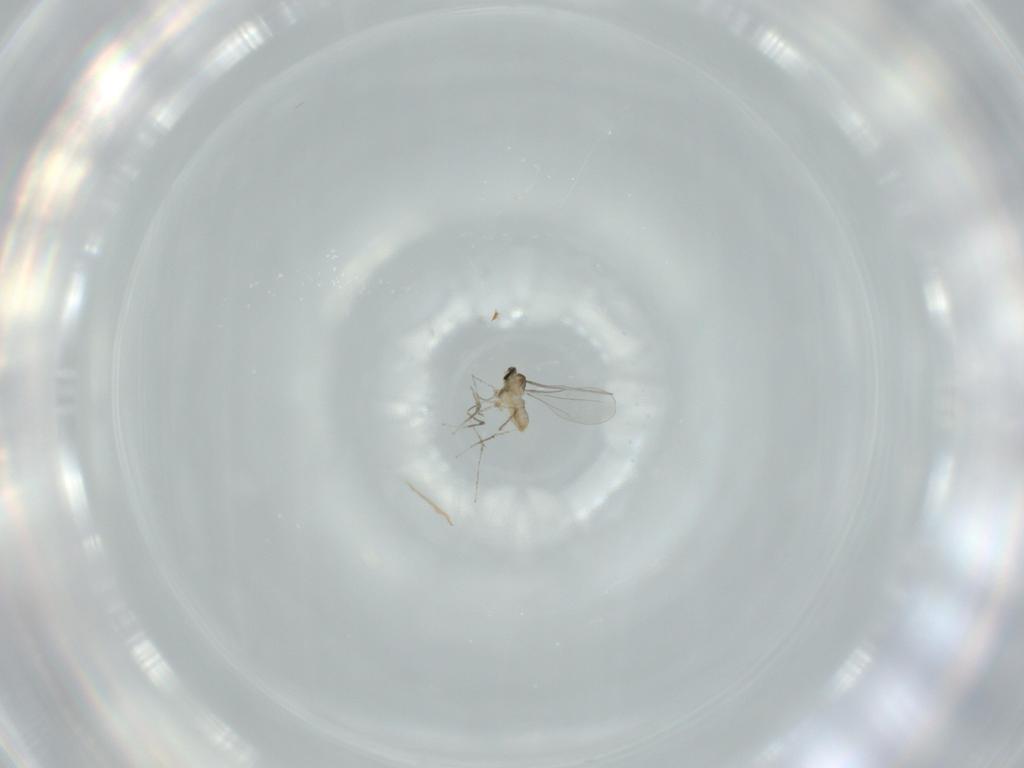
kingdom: Animalia
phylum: Arthropoda
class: Insecta
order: Diptera
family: Cecidomyiidae
